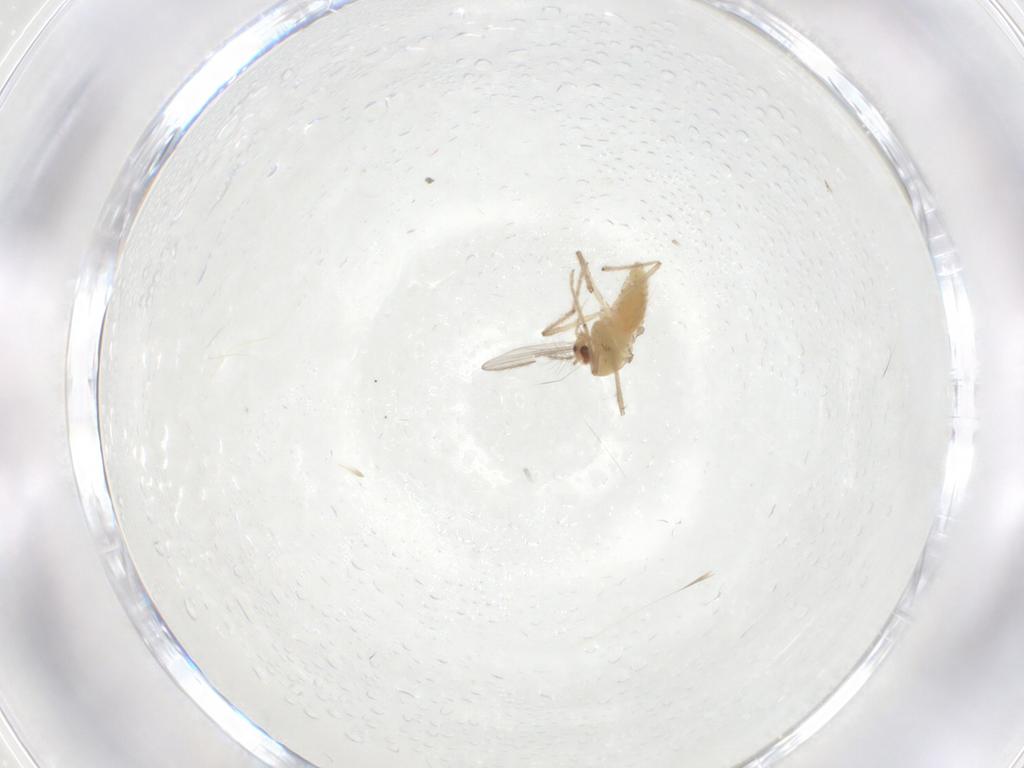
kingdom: Animalia
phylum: Arthropoda
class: Insecta
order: Diptera
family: Chironomidae
